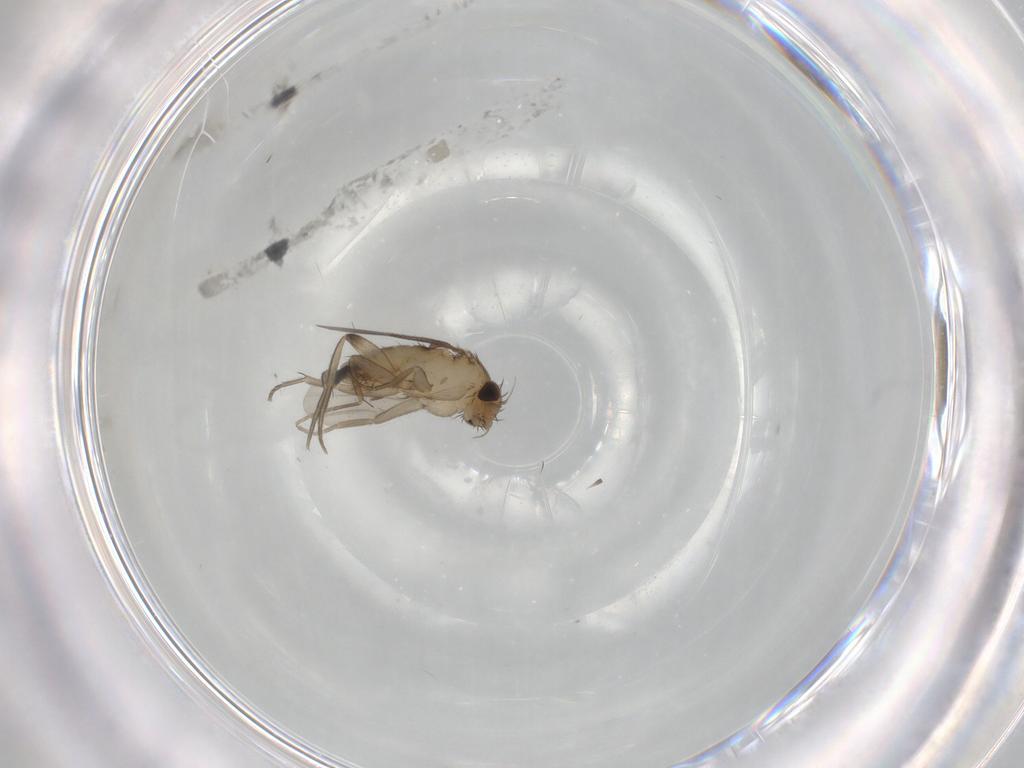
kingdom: Animalia
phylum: Arthropoda
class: Insecta
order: Diptera
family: Phoridae
